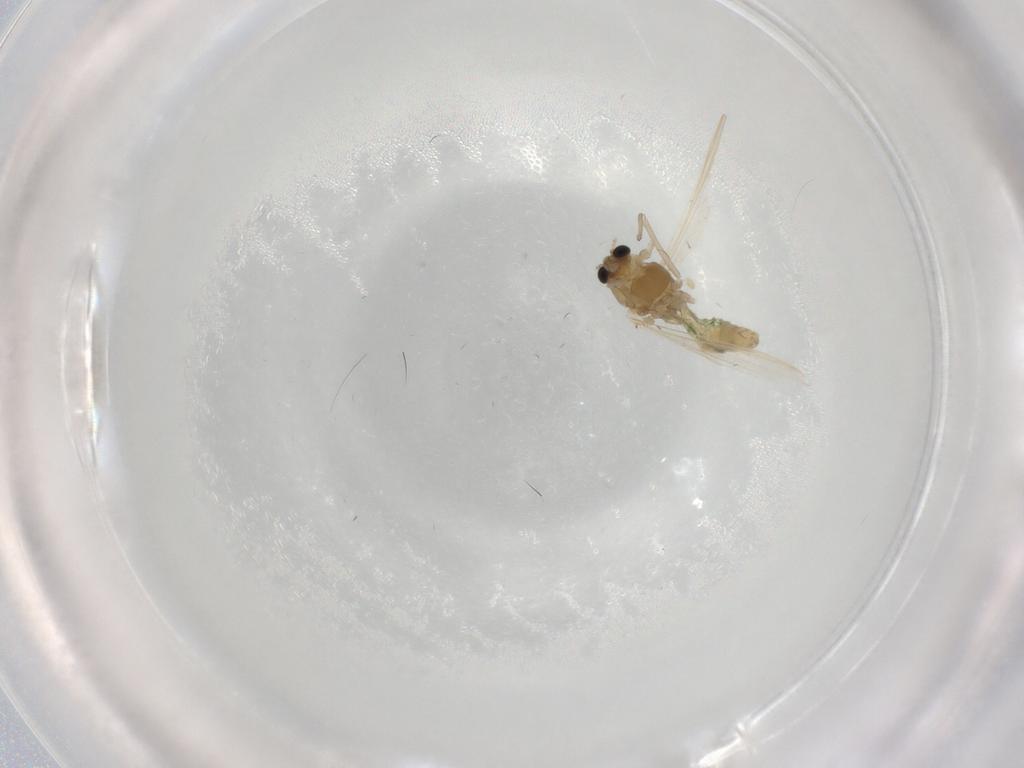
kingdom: Animalia
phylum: Arthropoda
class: Insecta
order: Diptera
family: Chironomidae
